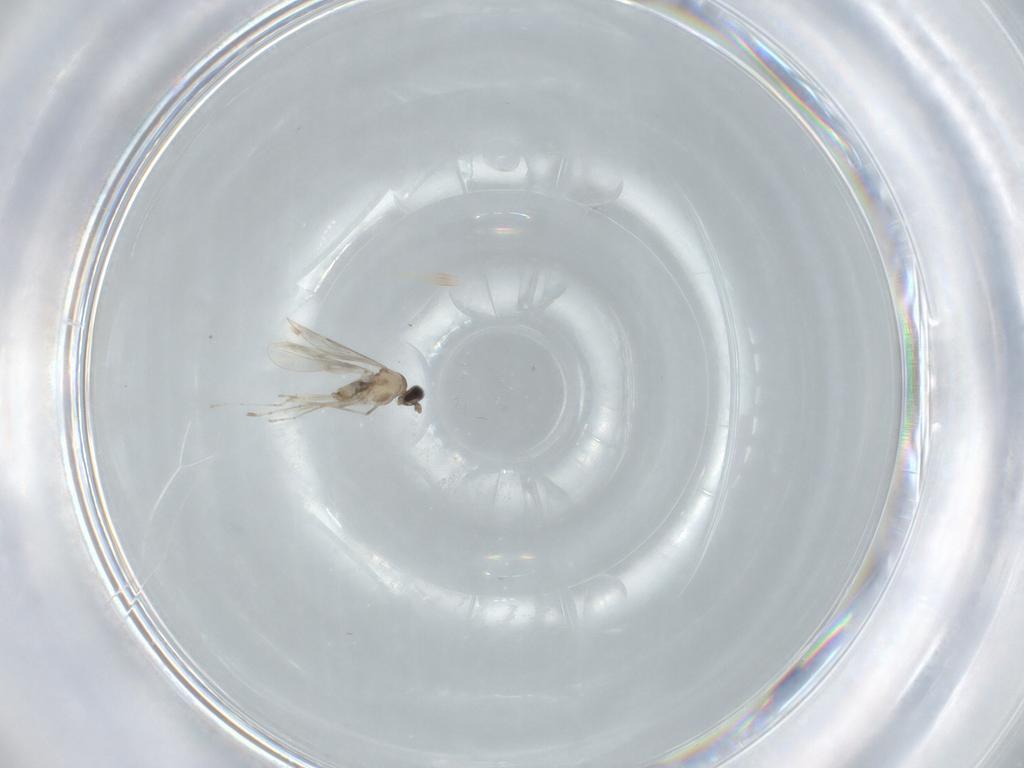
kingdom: Animalia
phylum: Arthropoda
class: Insecta
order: Diptera
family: Cecidomyiidae
